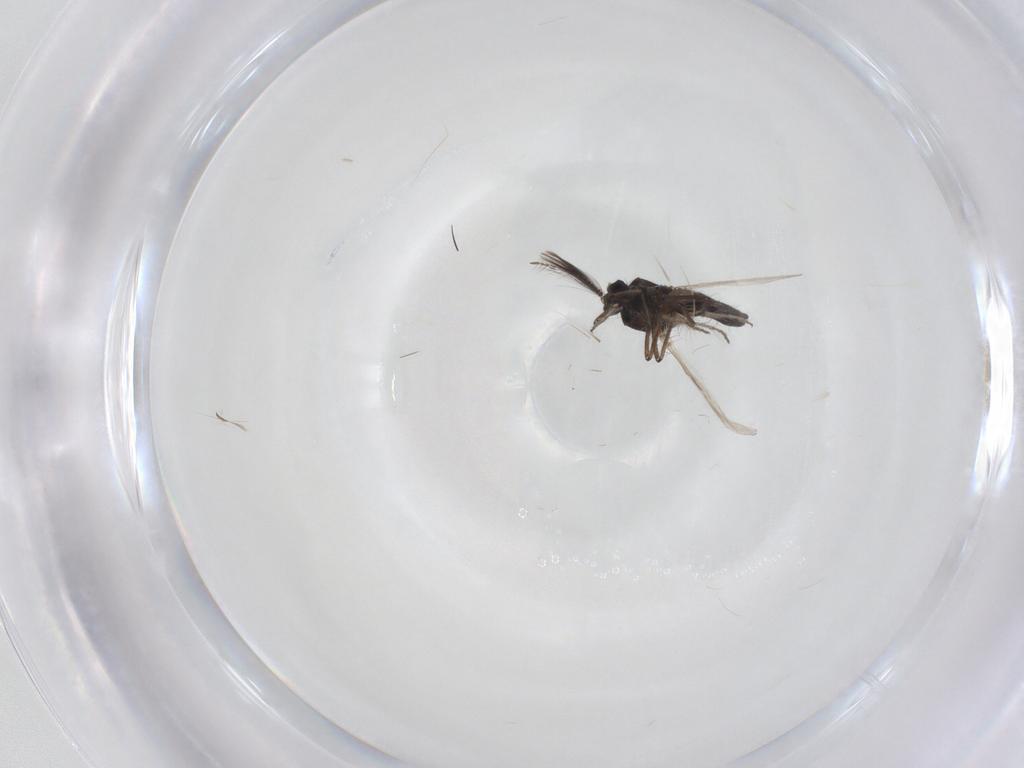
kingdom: Animalia
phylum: Arthropoda
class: Insecta
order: Diptera
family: Ceratopogonidae
